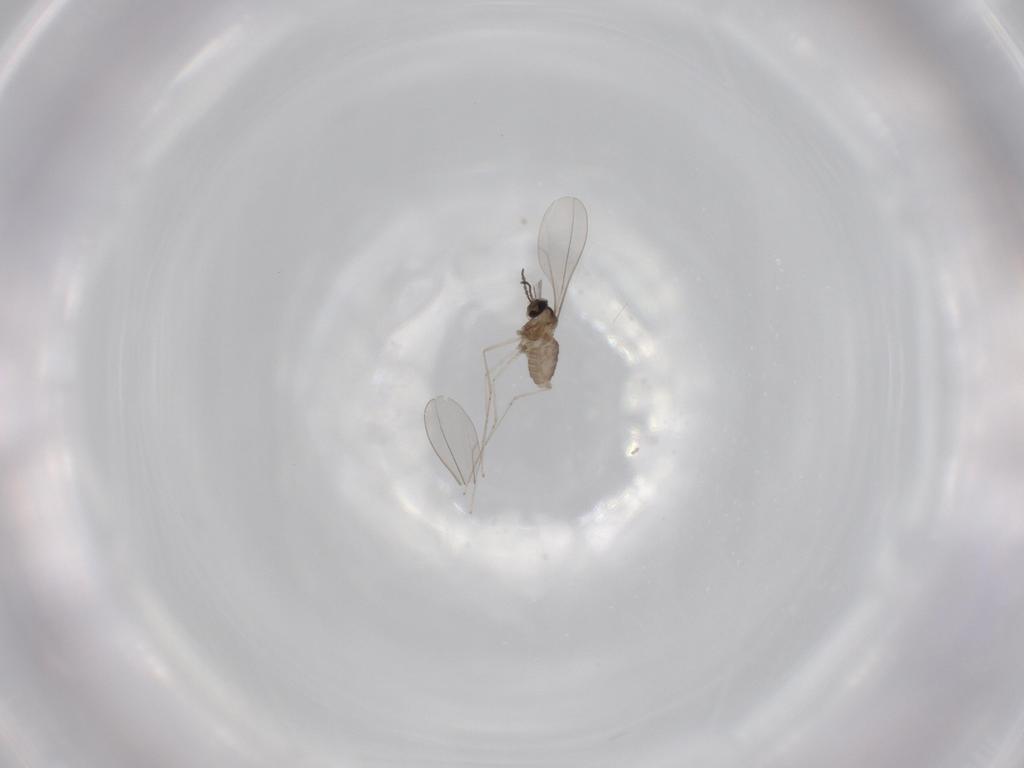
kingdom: Animalia
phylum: Arthropoda
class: Insecta
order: Diptera
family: Cecidomyiidae
